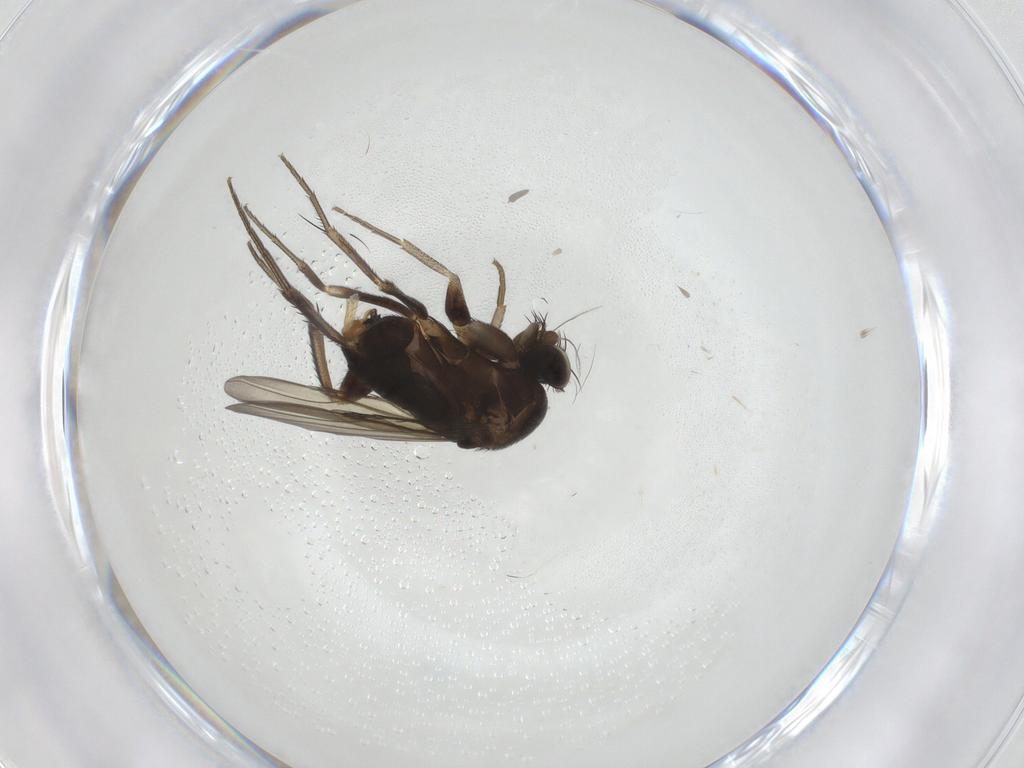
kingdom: Animalia
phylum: Arthropoda
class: Insecta
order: Diptera
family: Phoridae
